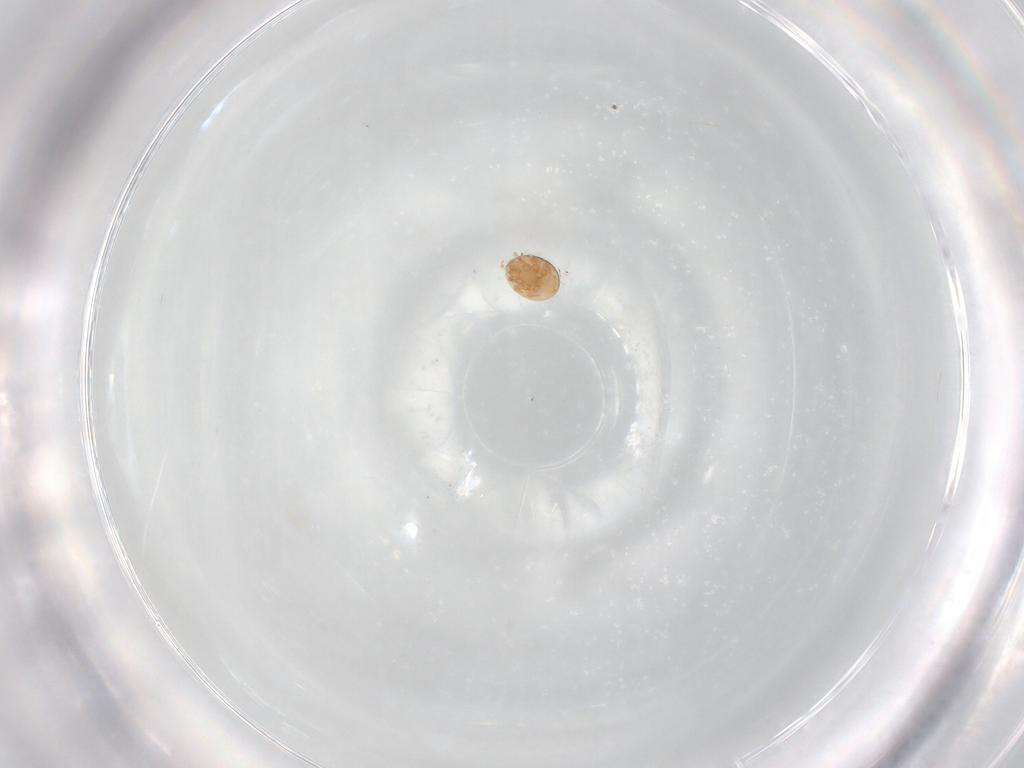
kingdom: Animalia
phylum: Arthropoda
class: Arachnida
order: Mesostigmata
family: Trematuridae
